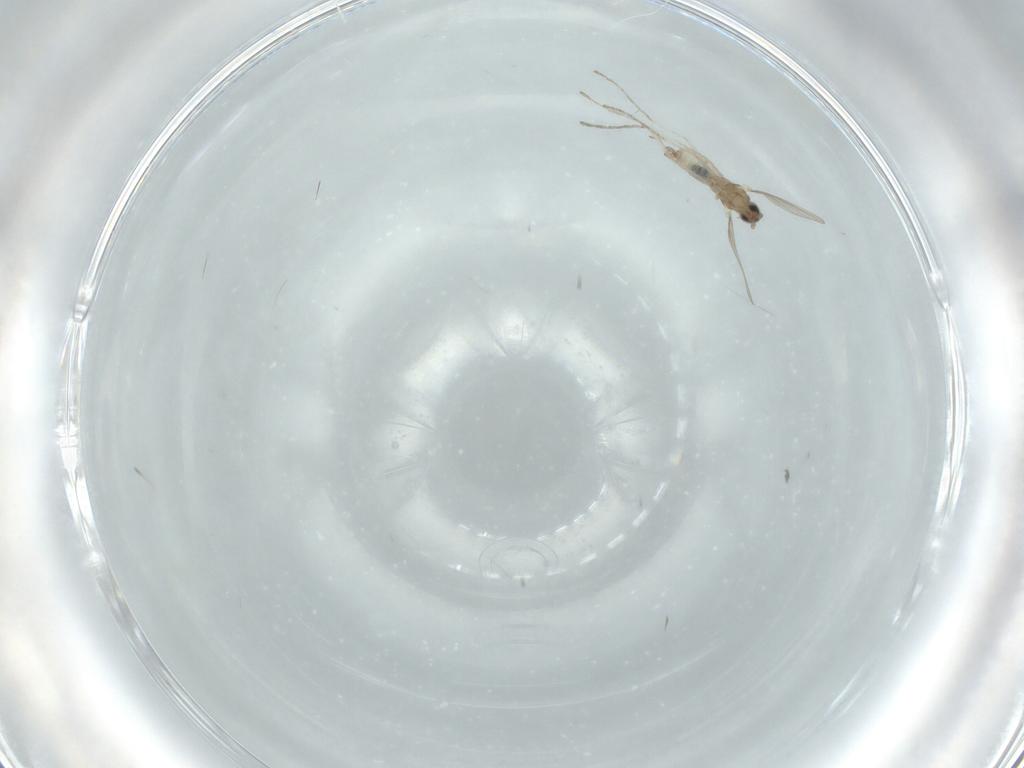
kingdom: Animalia
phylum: Arthropoda
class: Insecta
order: Diptera
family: Cecidomyiidae
